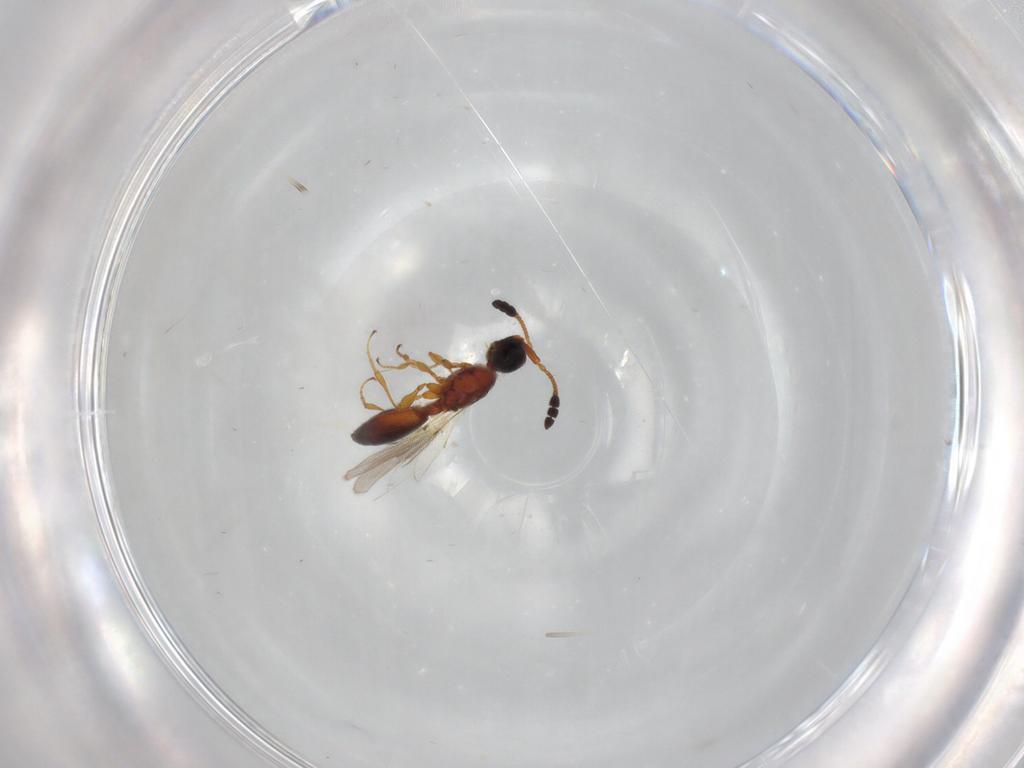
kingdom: Animalia
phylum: Arthropoda
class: Insecta
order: Hymenoptera
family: Diapriidae
